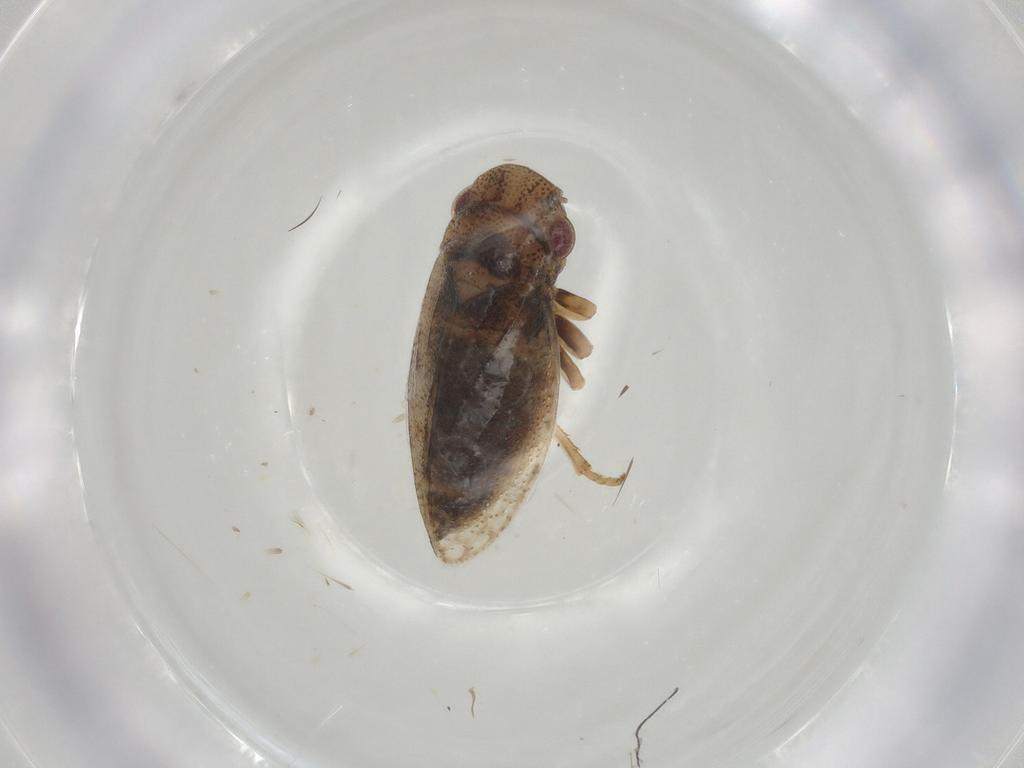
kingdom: Animalia
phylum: Arthropoda
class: Insecta
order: Hemiptera
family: Cicadellidae
